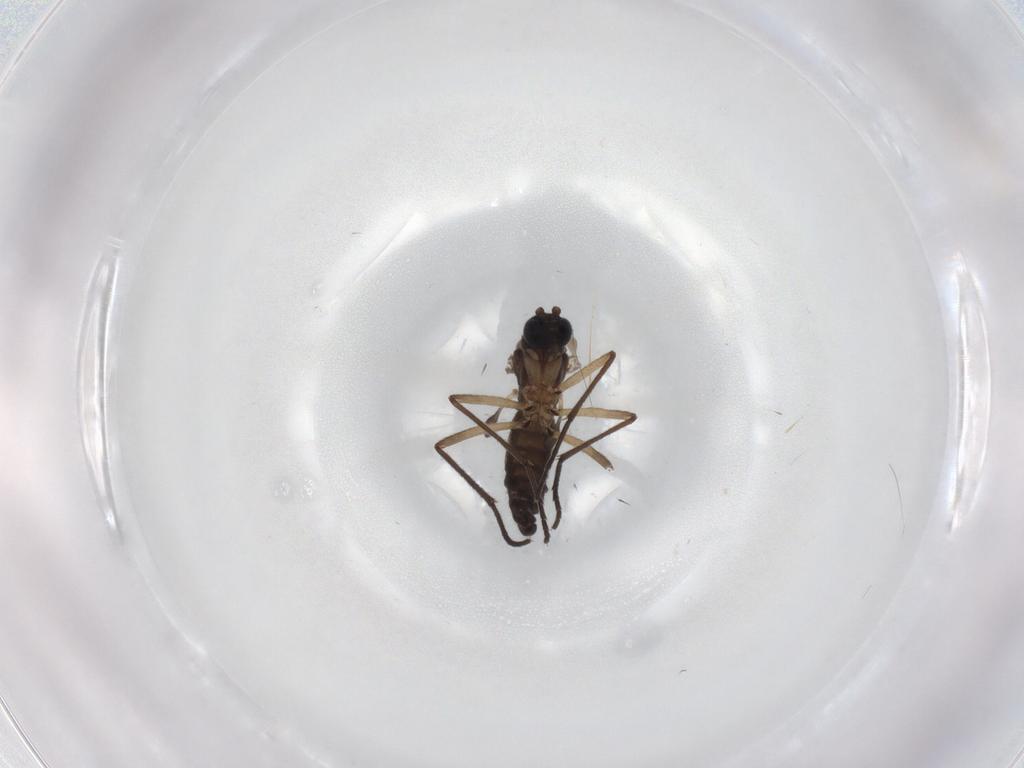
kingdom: Animalia
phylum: Arthropoda
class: Insecta
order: Diptera
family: Sciaridae
